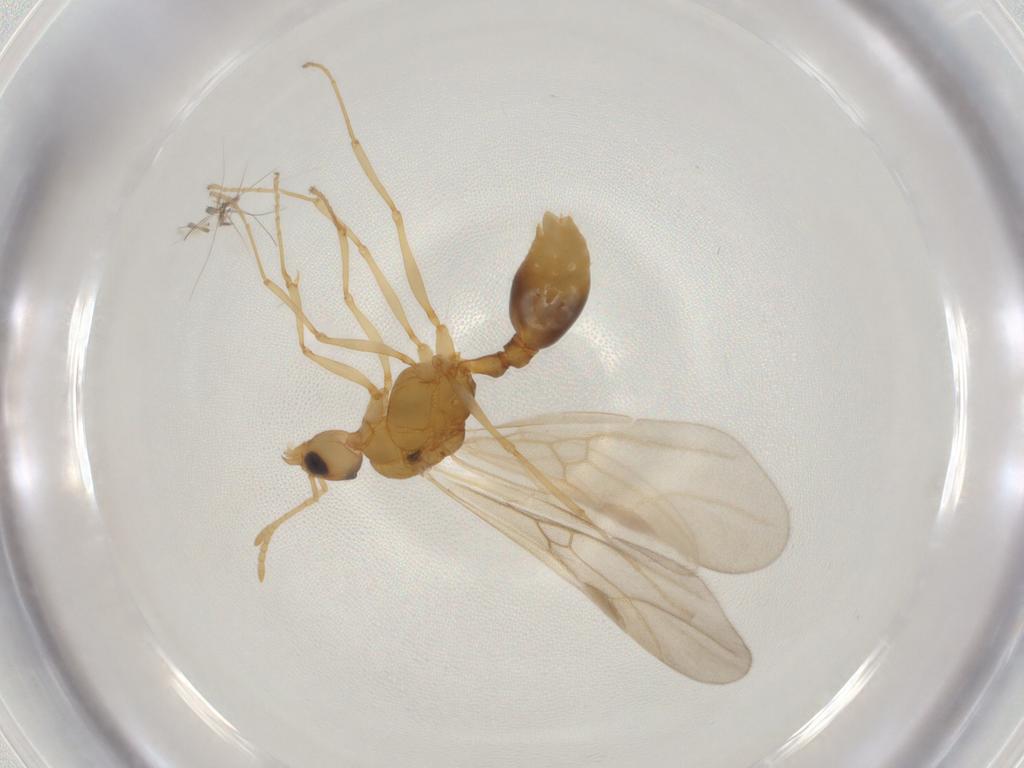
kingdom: Animalia
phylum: Arthropoda
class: Insecta
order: Hymenoptera
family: Formicidae
